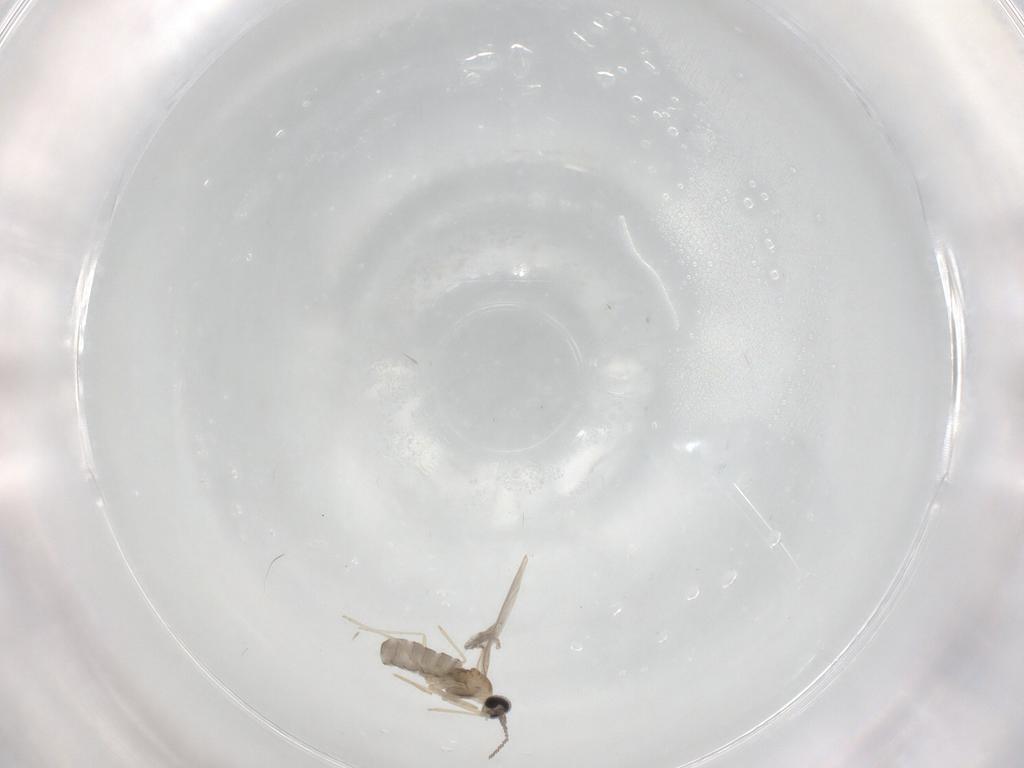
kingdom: Animalia
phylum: Arthropoda
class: Insecta
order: Diptera
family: Cecidomyiidae
